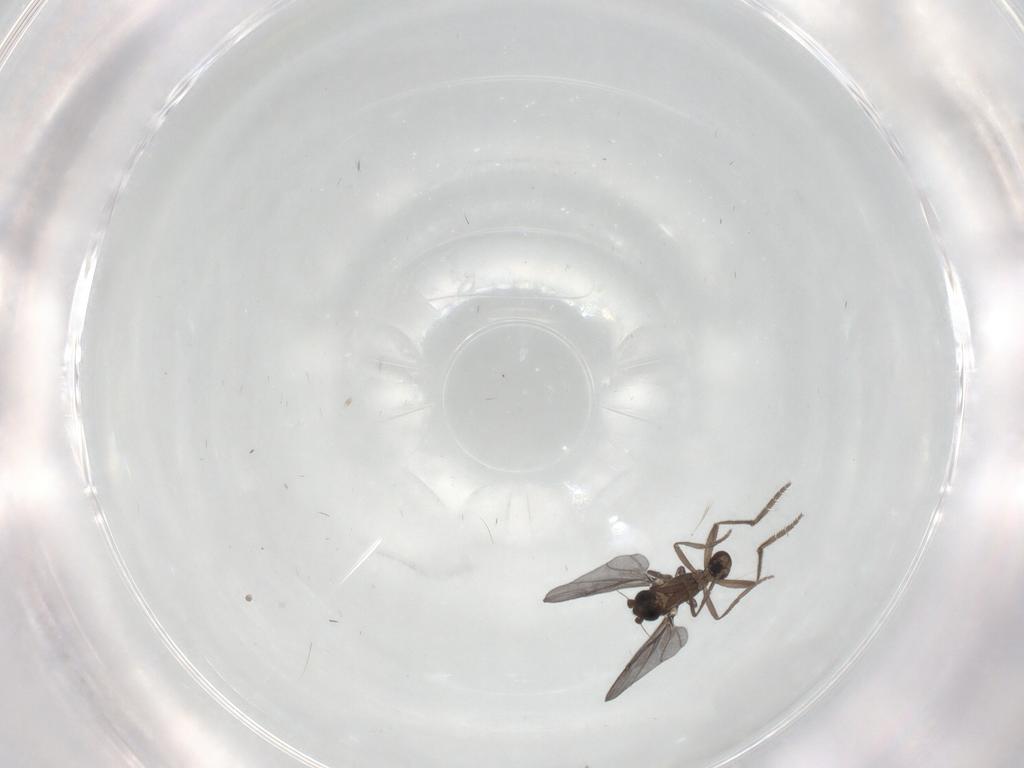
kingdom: Animalia
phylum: Arthropoda
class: Insecta
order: Diptera
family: Phoridae
